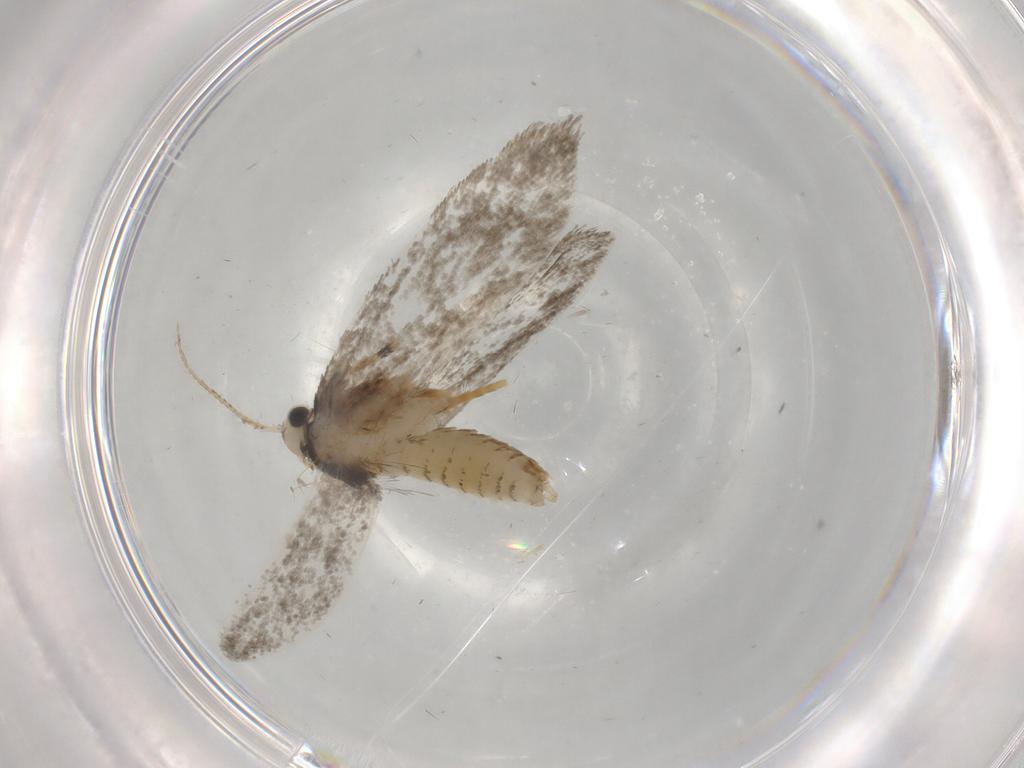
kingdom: Animalia
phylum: Arthropoda
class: Insecta
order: Lepidoptera
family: Psychidae
